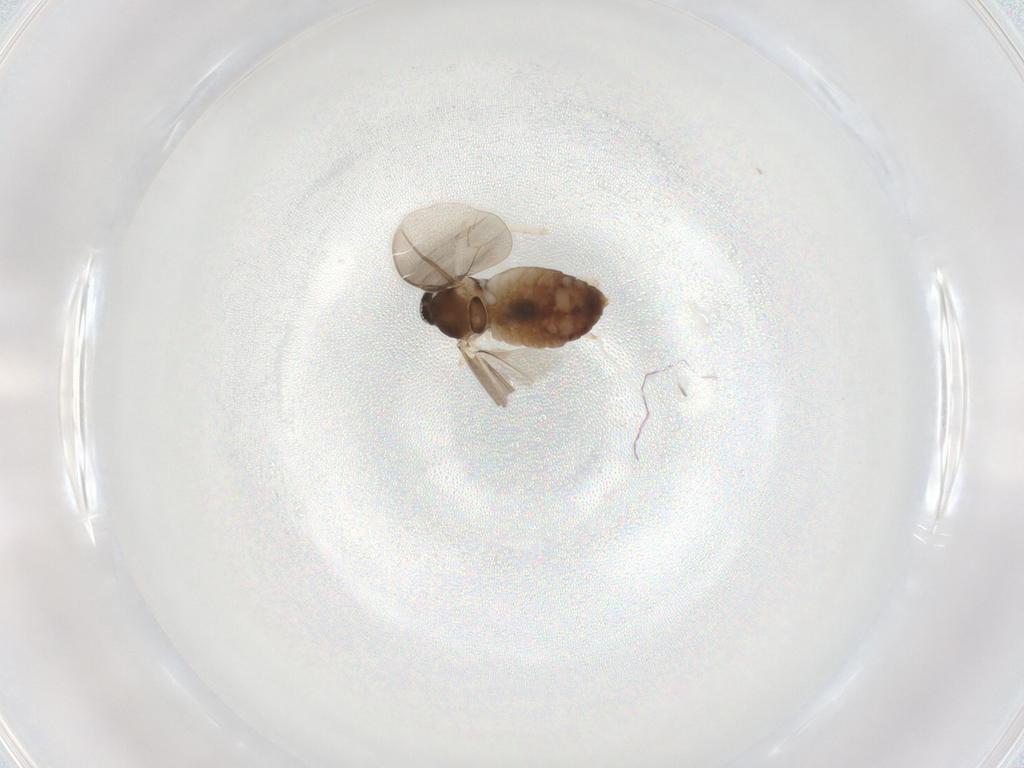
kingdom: Animalia
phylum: Arthropoda
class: Insecta
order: Diptera
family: Cecidomyiidae
